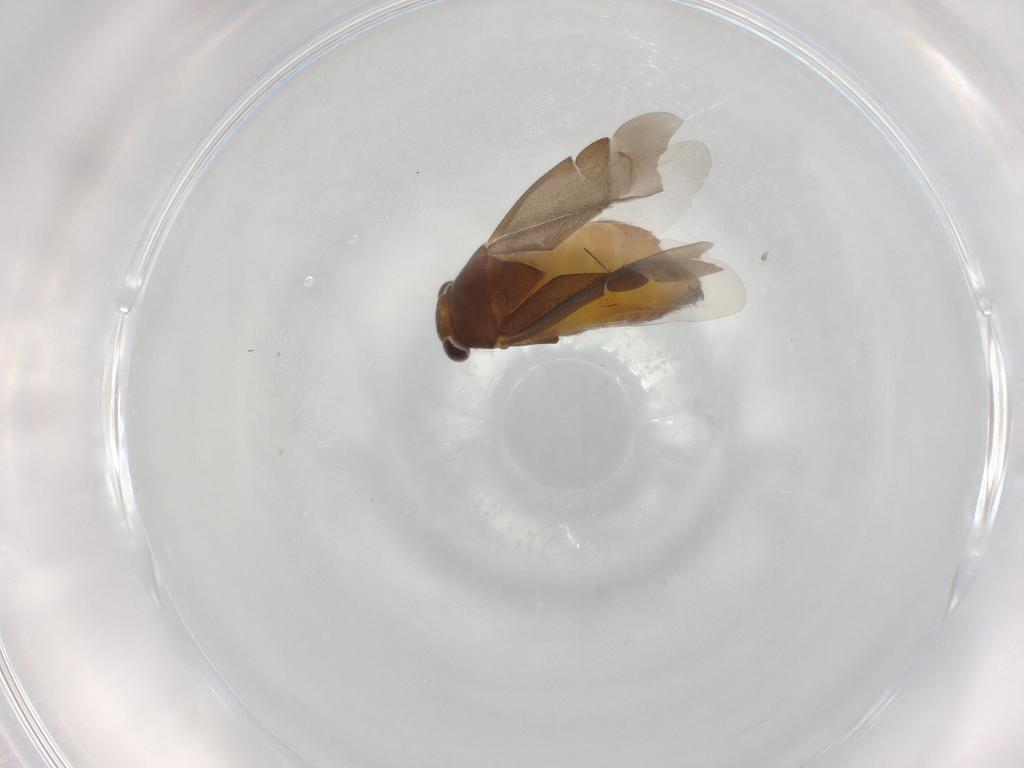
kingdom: Animalia
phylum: Arthropoda
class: Insecta
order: Hemiptera
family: Miridae
